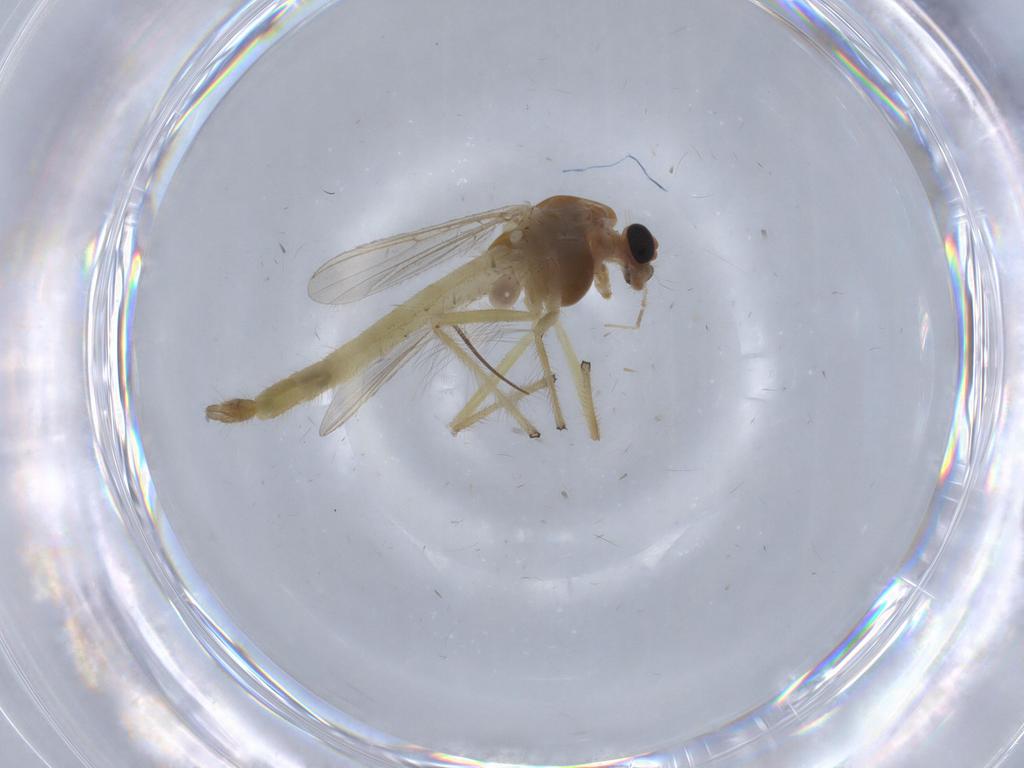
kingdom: Animalia
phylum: Arthropoda
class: Insecta
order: Diptera
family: Chironomidae
